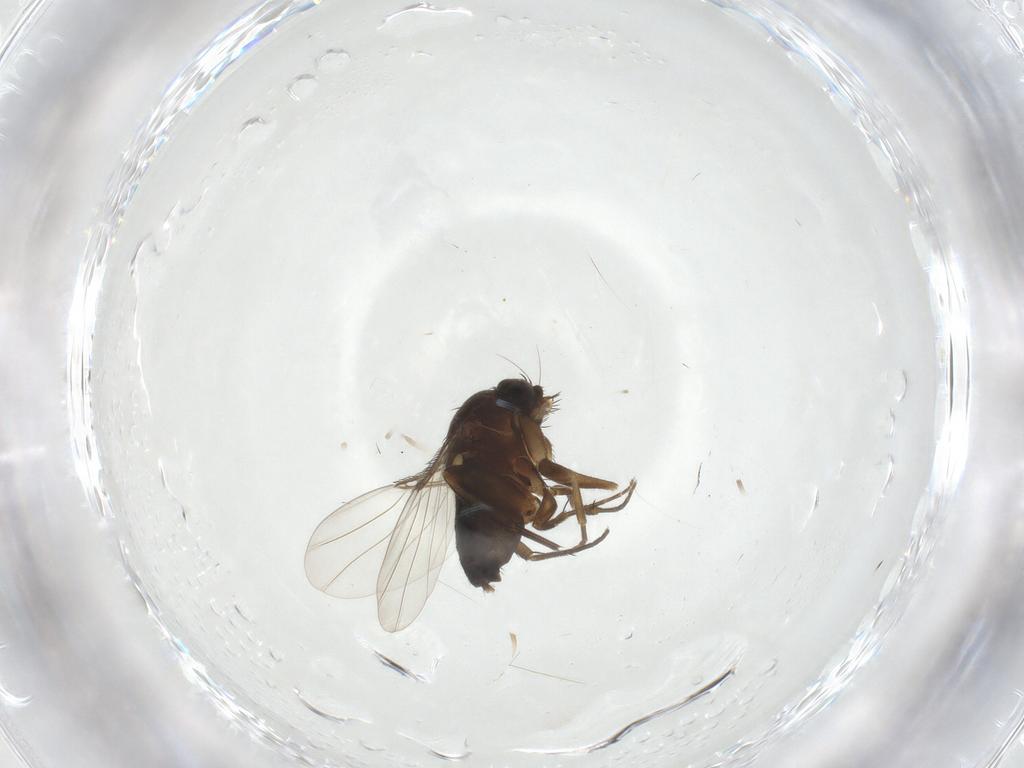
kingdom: Animalia
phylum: Arthropoda
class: Insecta
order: Diptera
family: Phoridae
